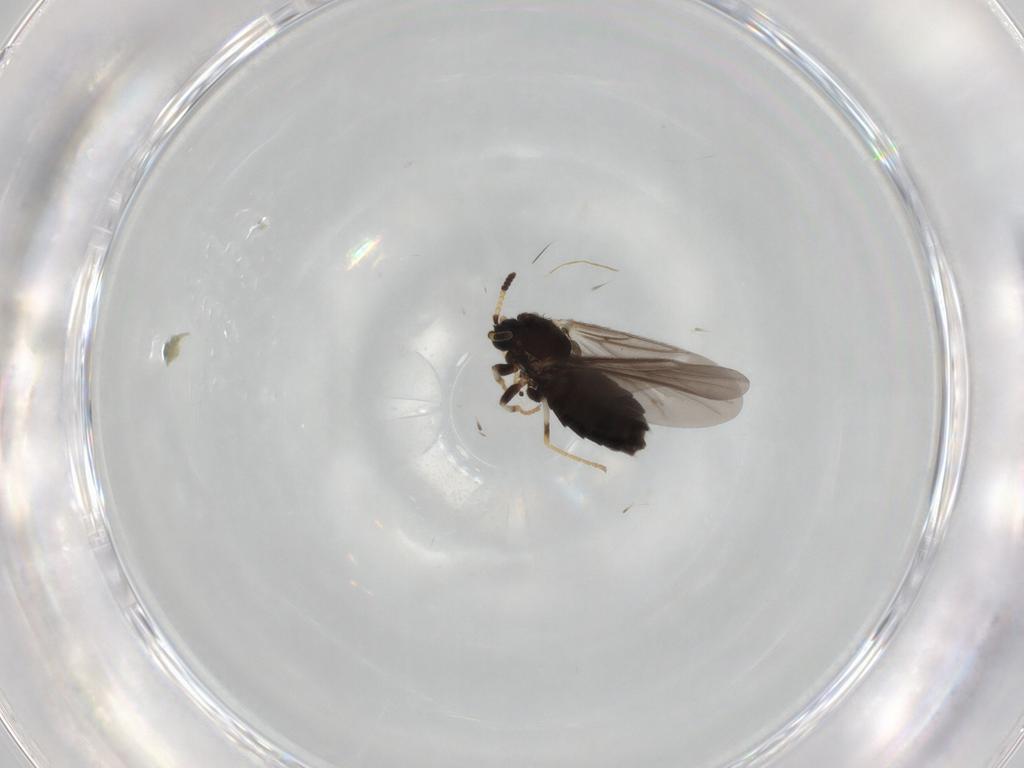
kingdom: Animalia
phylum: Arthropoda
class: Insecta
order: Diptera
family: Scatopsidae
